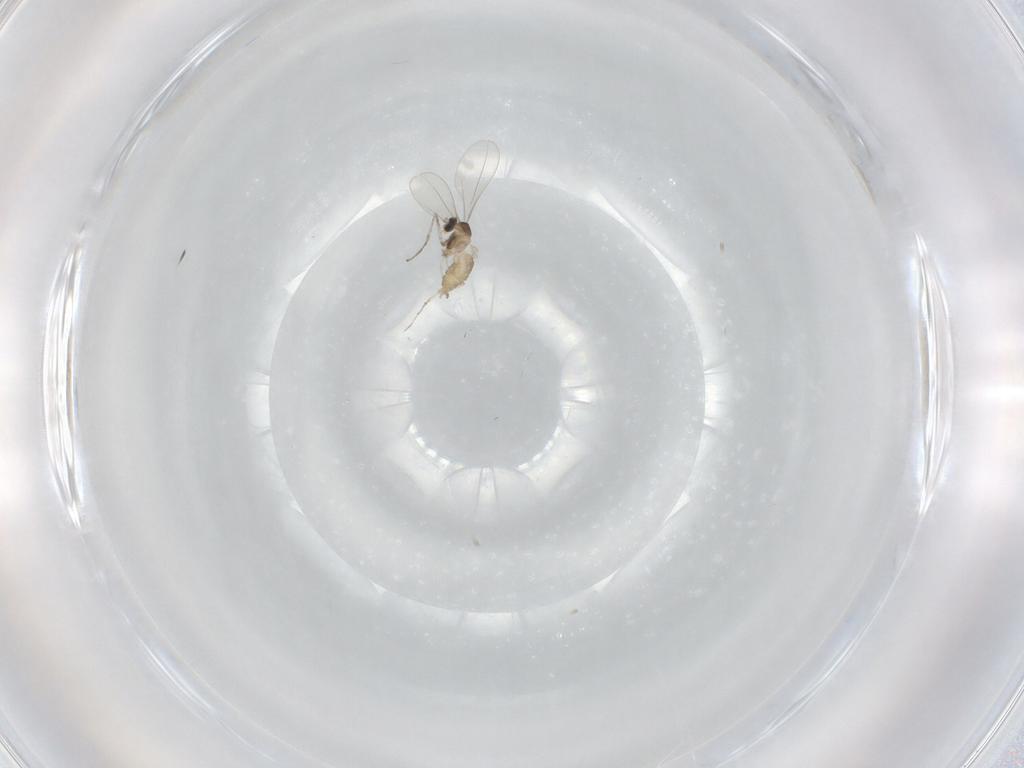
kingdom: Animalia
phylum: Arthropoda
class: Insecta
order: Diptera
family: Cecidomyiidae
